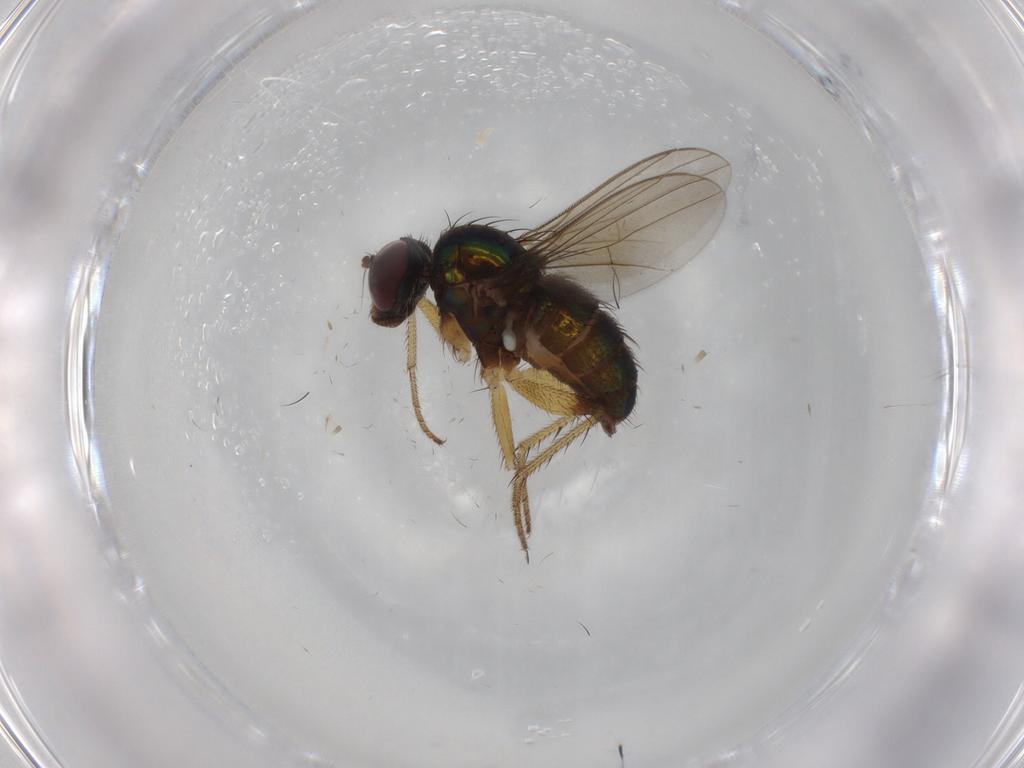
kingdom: Animalia
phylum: Arthropoda
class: Insecta
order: Diptera
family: Dolichopodidae
